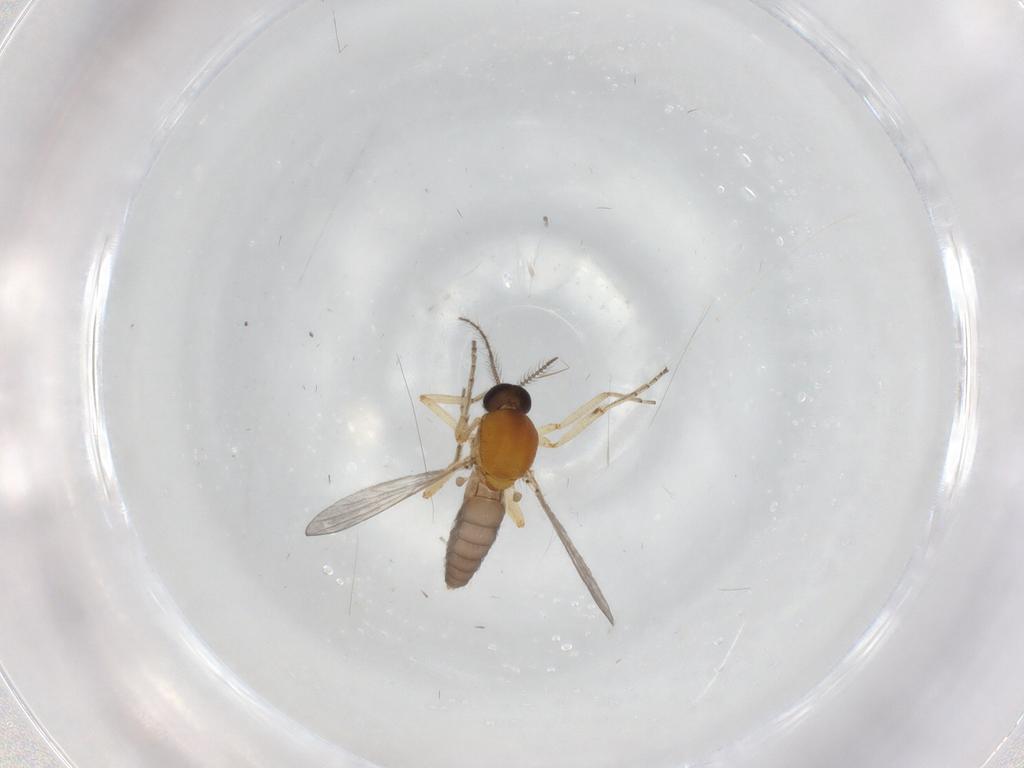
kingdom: Animalia
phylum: Arthropoda
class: Insecta
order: Diptera
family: Ceratopogonidae
